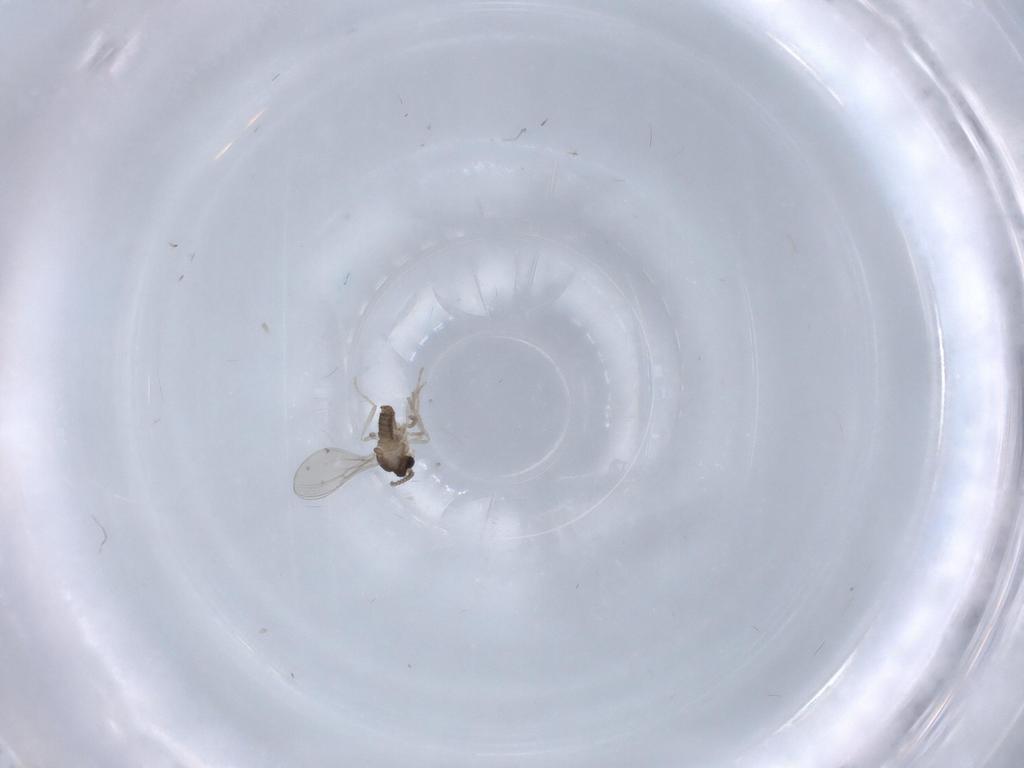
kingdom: Animalia
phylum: Arthropoda
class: Insecta
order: Diptera
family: Cecidomyiidae
